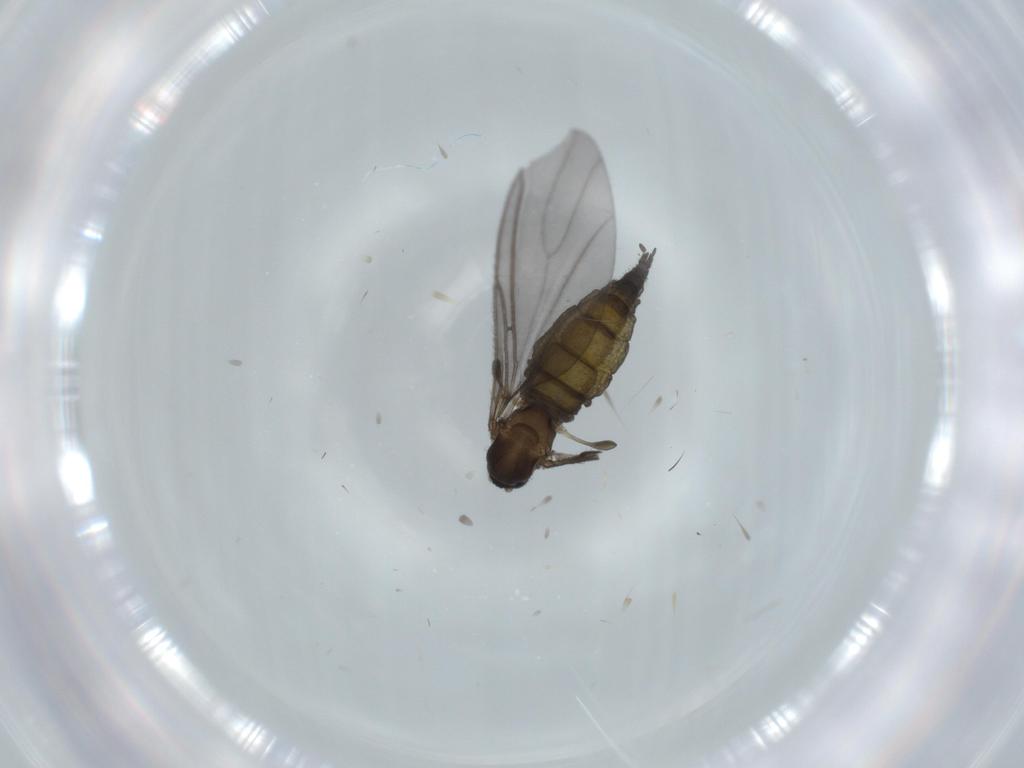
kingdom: Animalia
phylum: Arthropoda
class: Insecta
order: Diptera
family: Sciaridae
